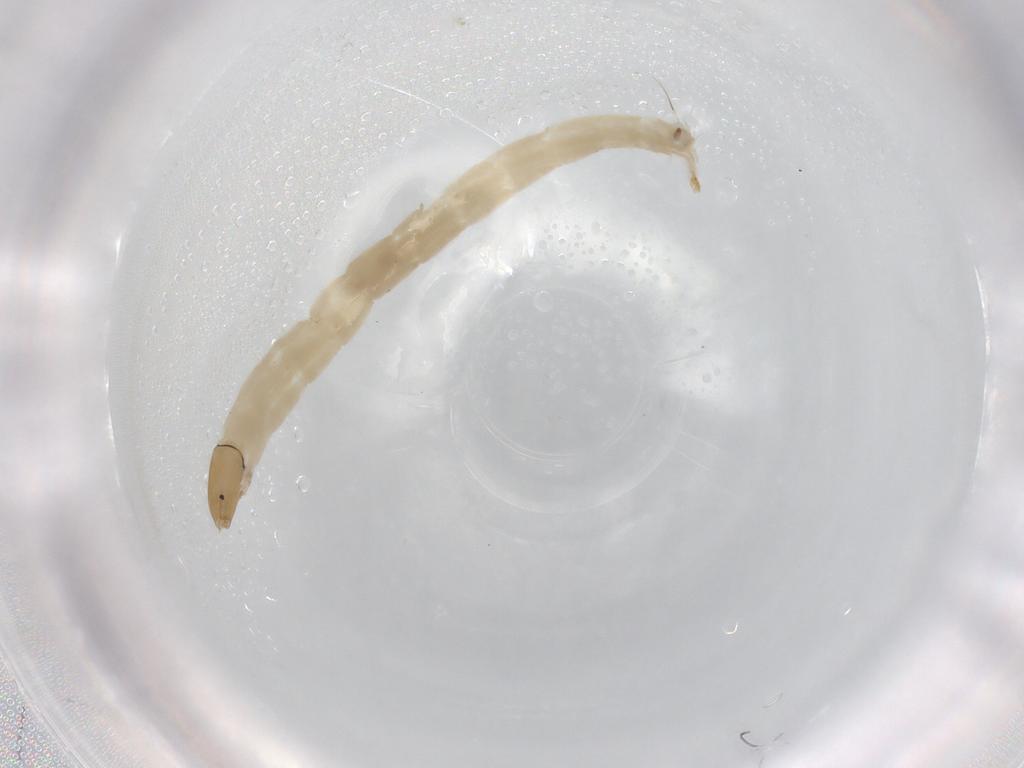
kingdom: Animalia
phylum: Arthropoda
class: Insecta
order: Diptera
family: Chironomidae
